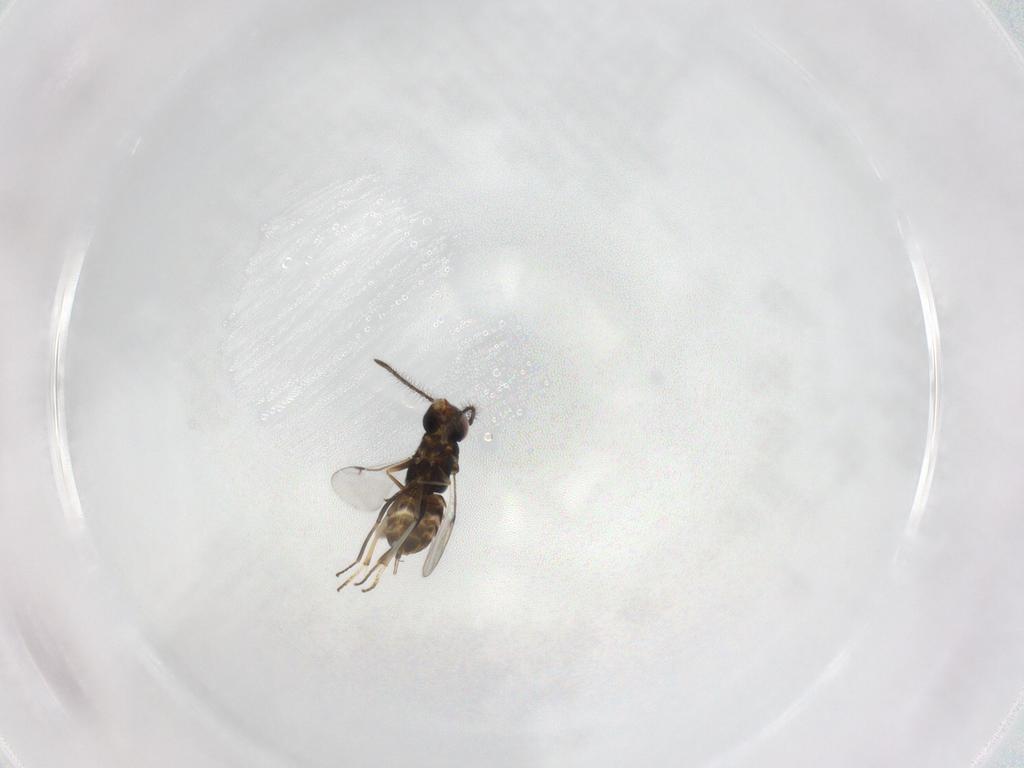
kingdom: Animalia
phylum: Arthropoda
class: Insecta
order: Hymenoptera
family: Encyrtidae
